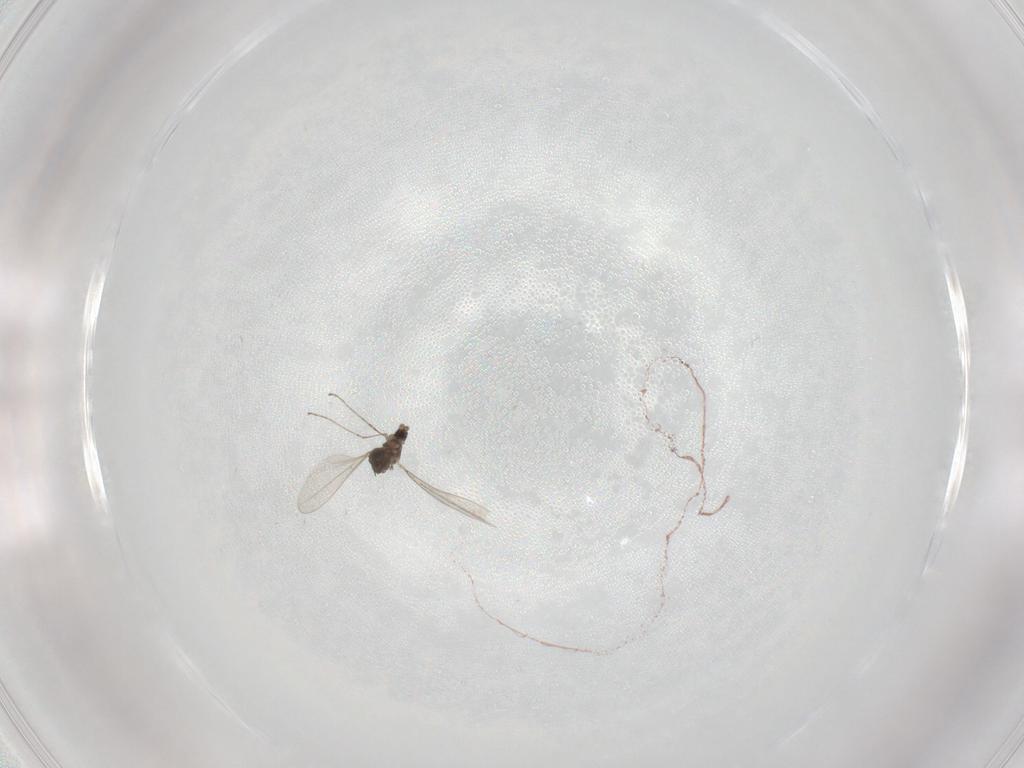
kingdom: Animalia
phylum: Arthropoda
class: Insecta
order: Diptera
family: Cecidomyiidae
